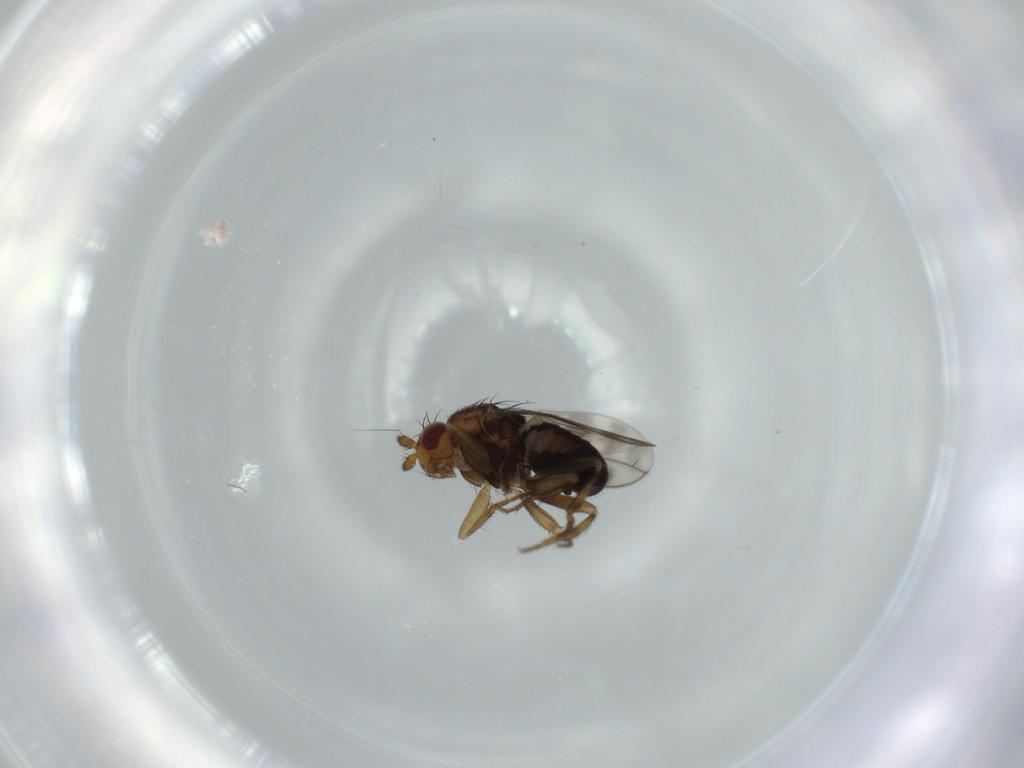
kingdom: Animalia
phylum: Arthropoda
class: Insecta
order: Diptera
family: Sphaeroceridae
